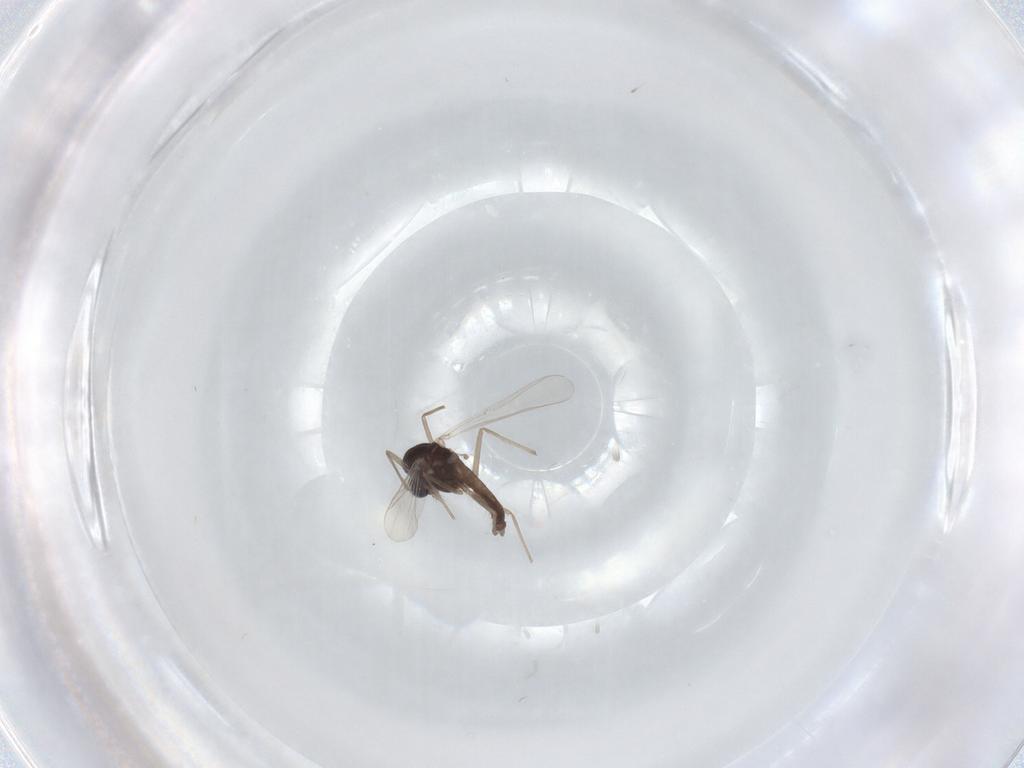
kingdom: Animalia
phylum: Arthropoda
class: Insecta
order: Diptera
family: Chironomidae
